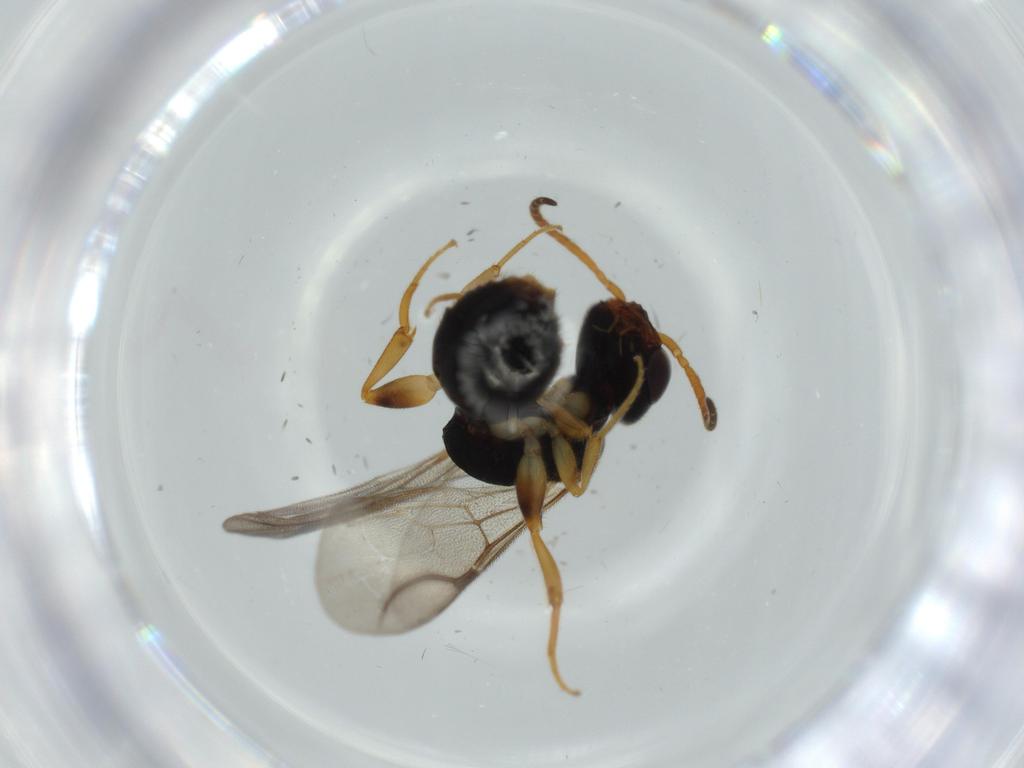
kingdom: Animalia
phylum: Arthropoda
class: Insecta
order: Hymenoptera
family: Bethylidae
